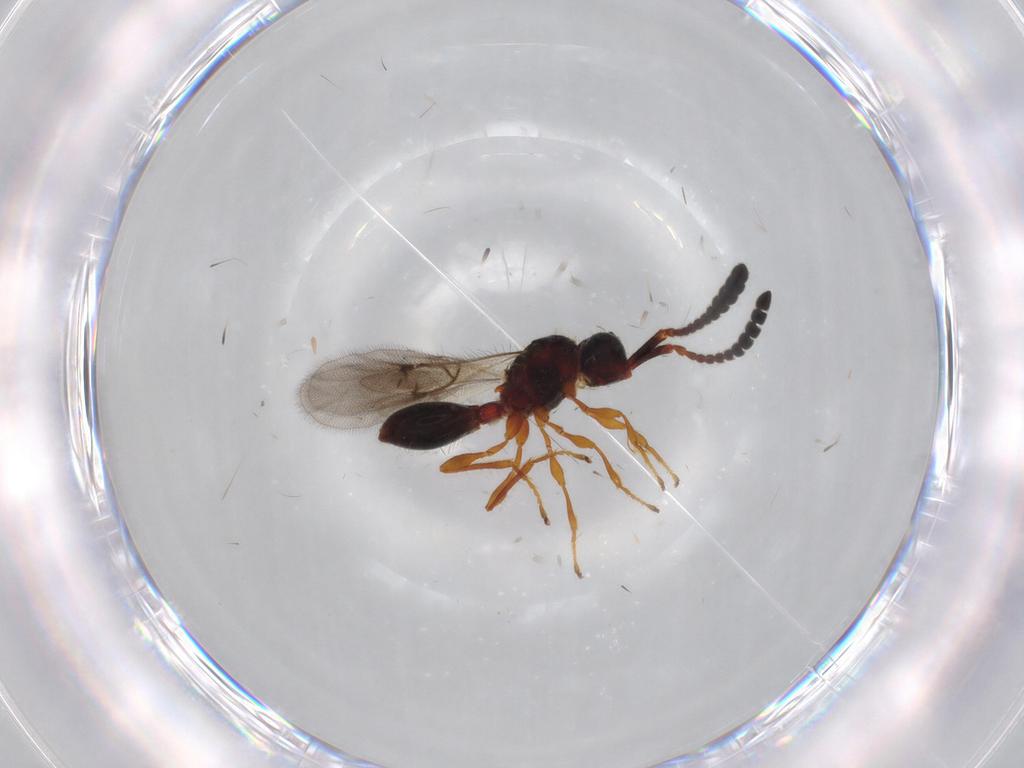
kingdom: Animalia
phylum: Arthropoda
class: Insecta
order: Hymenoptera
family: Diapriidae
